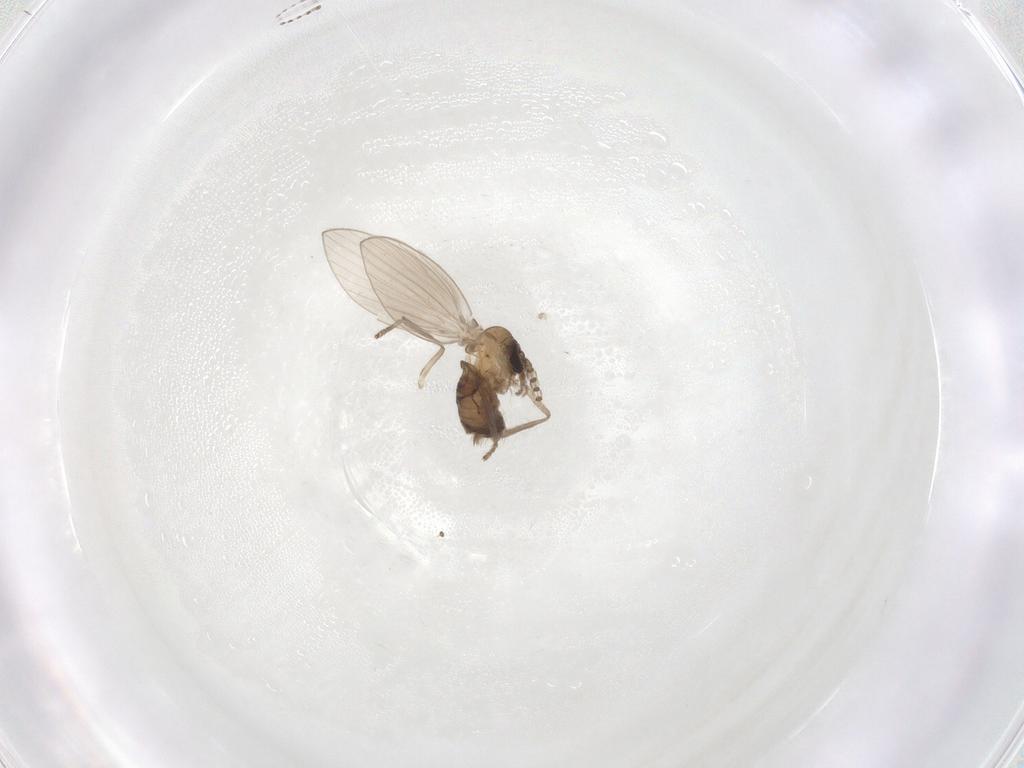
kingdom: Animalia
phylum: Arthropoda
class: Insecta
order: Diptera
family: Psychodidae
